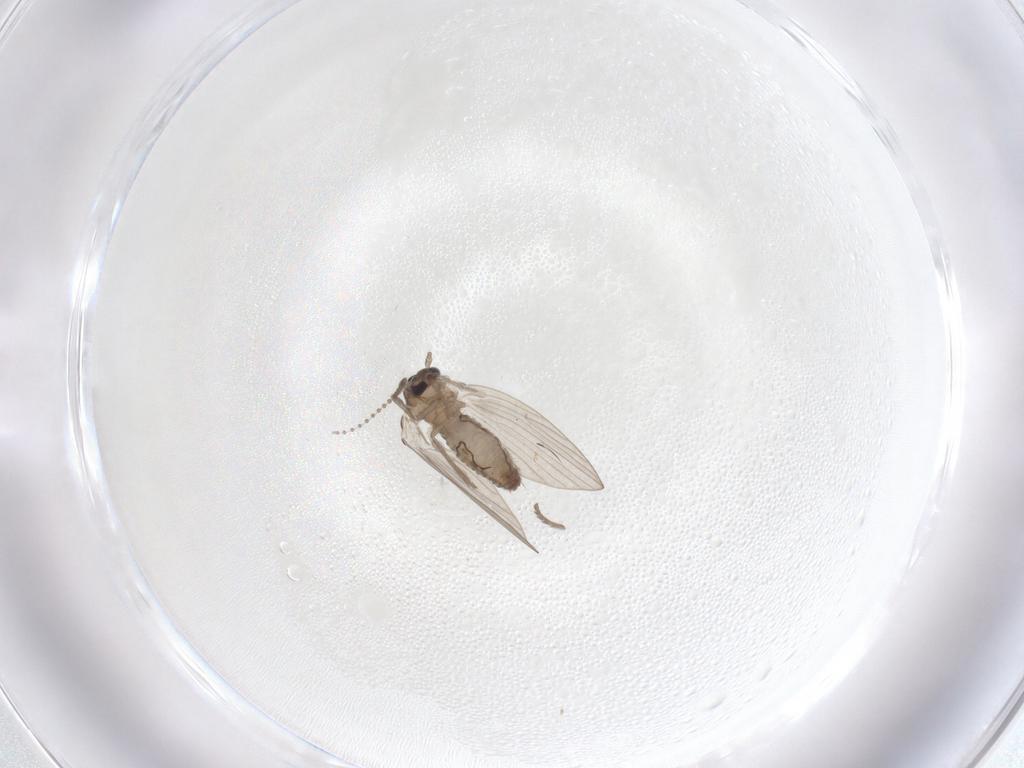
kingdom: Animalia
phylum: Arthropoda
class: Insecta
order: Diptera
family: Psychodidae
